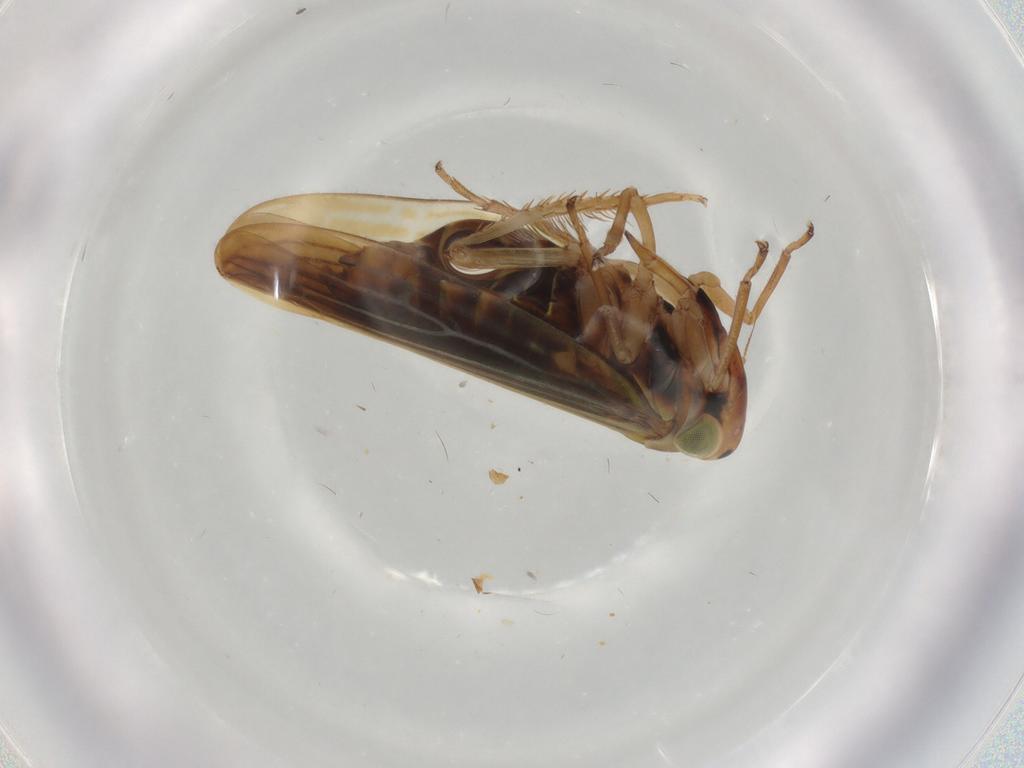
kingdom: Animalia
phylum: Arthropoda
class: Insecta
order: Hemiptera
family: Cicadellidae
